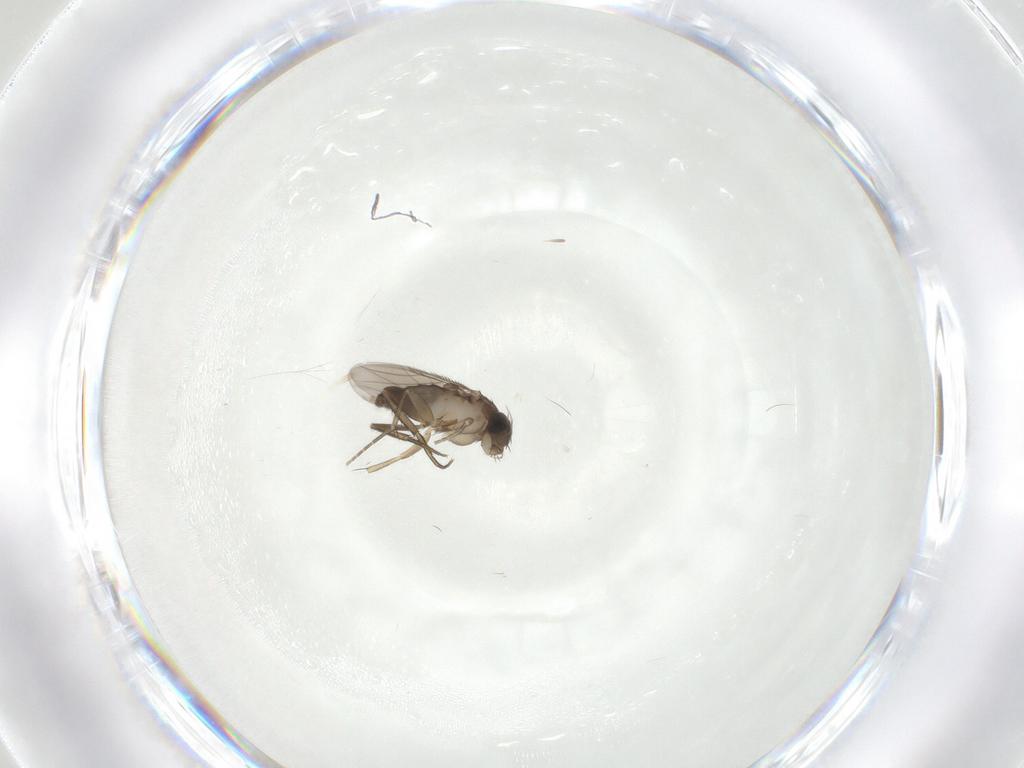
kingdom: Animalia
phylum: Arthropoda
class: Insecta
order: Diptera
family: Phoridae
